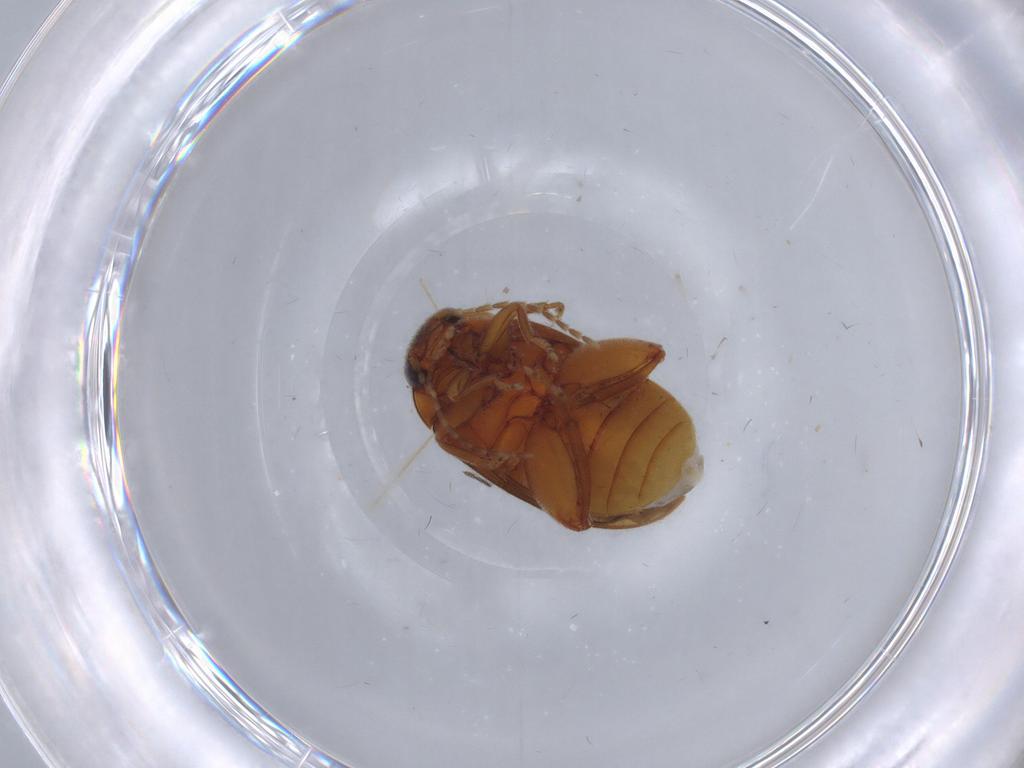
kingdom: Animalia
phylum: Arthropoda
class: Insecta
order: Coleoptera
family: Scirtidae
